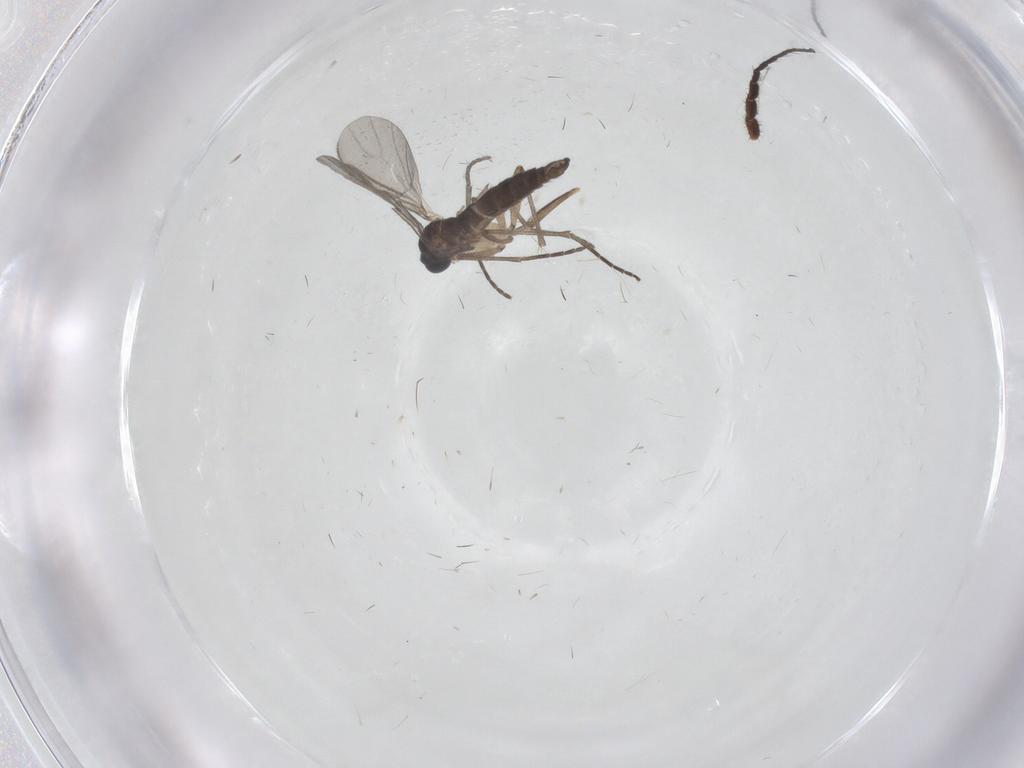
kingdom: Animalia
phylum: Arthropoda
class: Insecta
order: Diptera
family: Sciaridae
